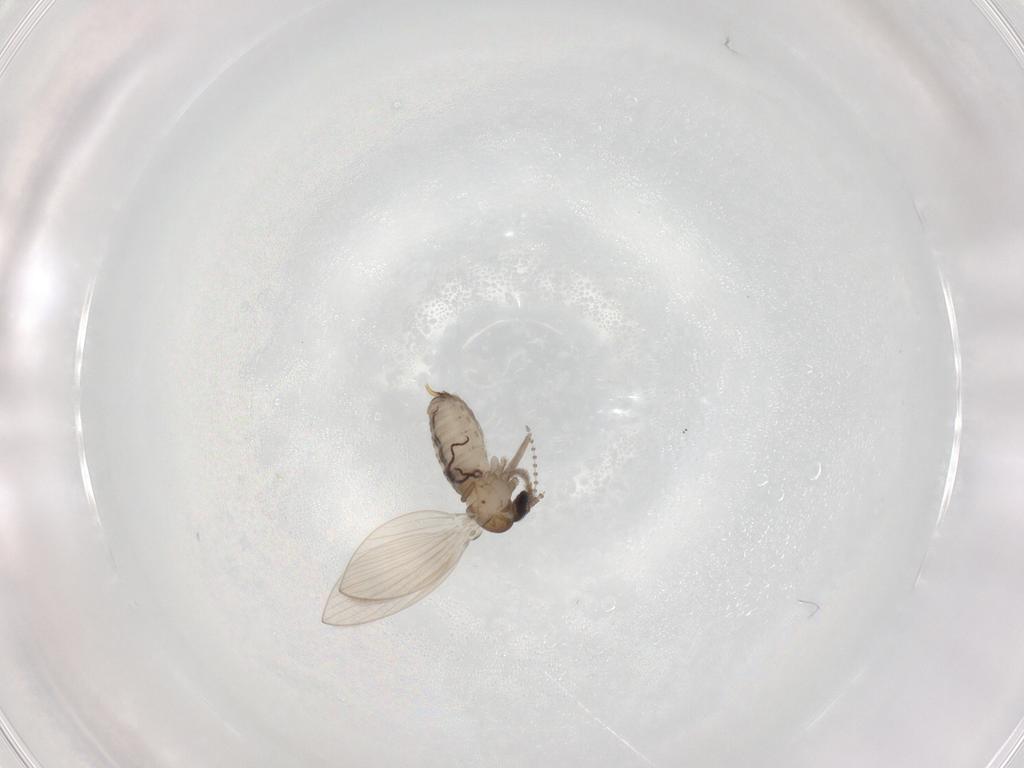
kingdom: Animalia
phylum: Arthropoda
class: Insecta
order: Diptera
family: Psychodidae
